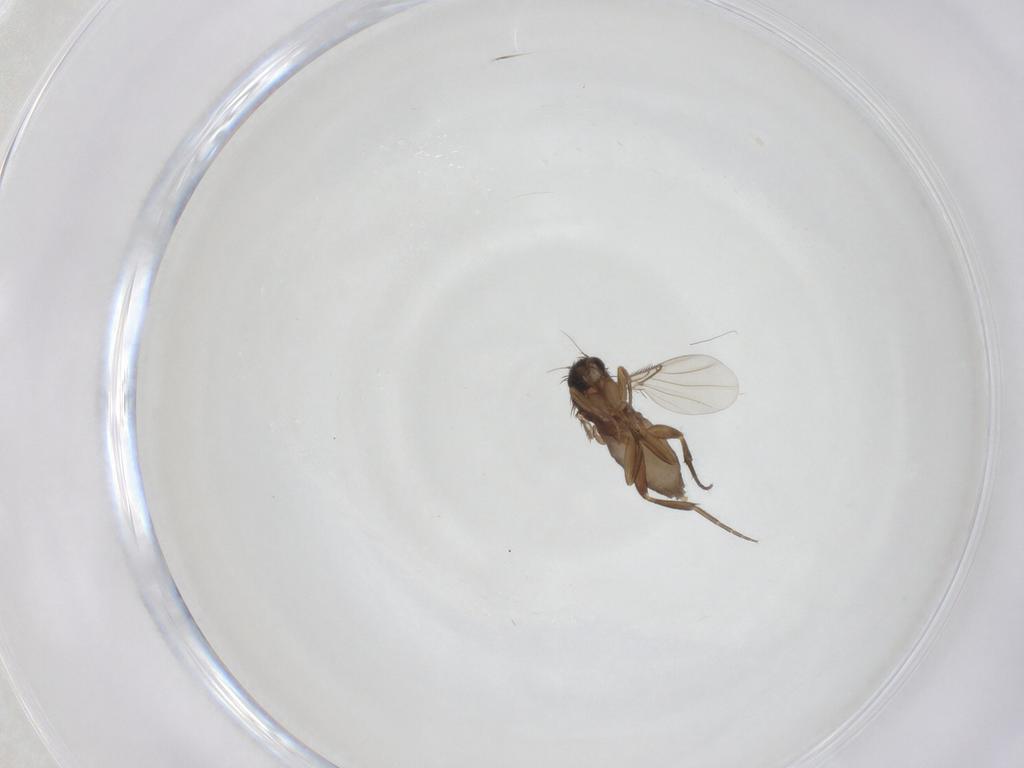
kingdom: Animalia
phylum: Arthropoda
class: Insecta
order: Diptera
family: Phoridae
